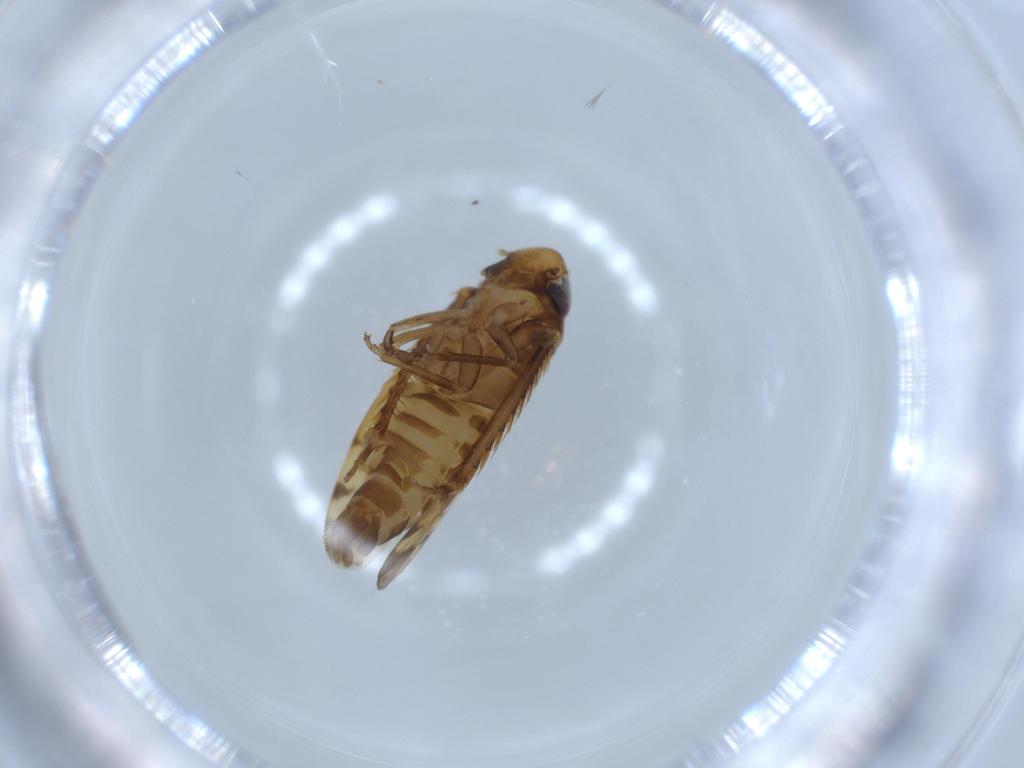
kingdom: Animalia
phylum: Arthropoda
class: Insecta
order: Hemiptera
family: Cicadellidae
